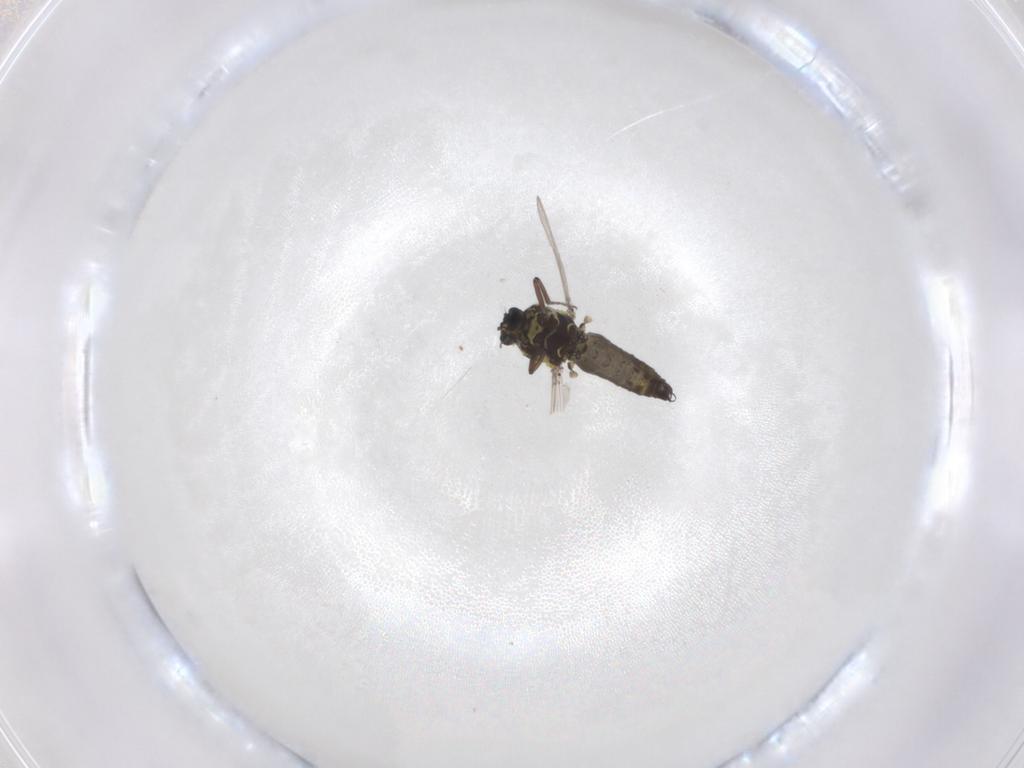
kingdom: Animalia
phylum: Arthropoda
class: Insecta
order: Diptera
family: Ceratopogonidae
